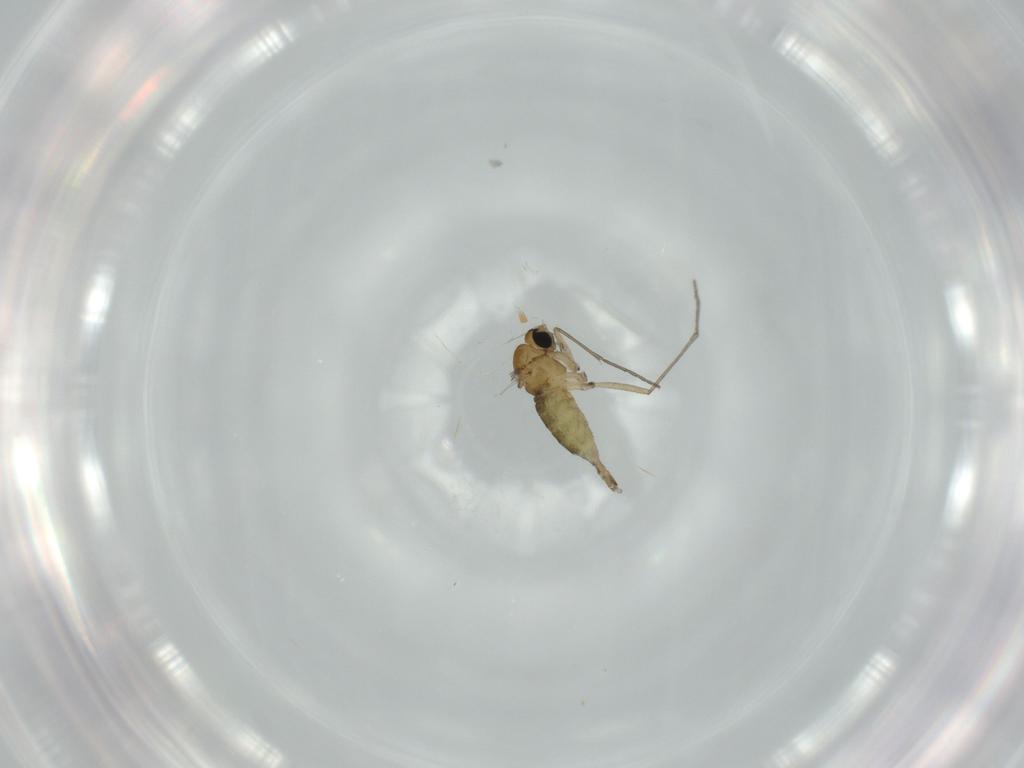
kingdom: Animalia
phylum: Arthropoda
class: Insecta
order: Diptera
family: Sciaridae
